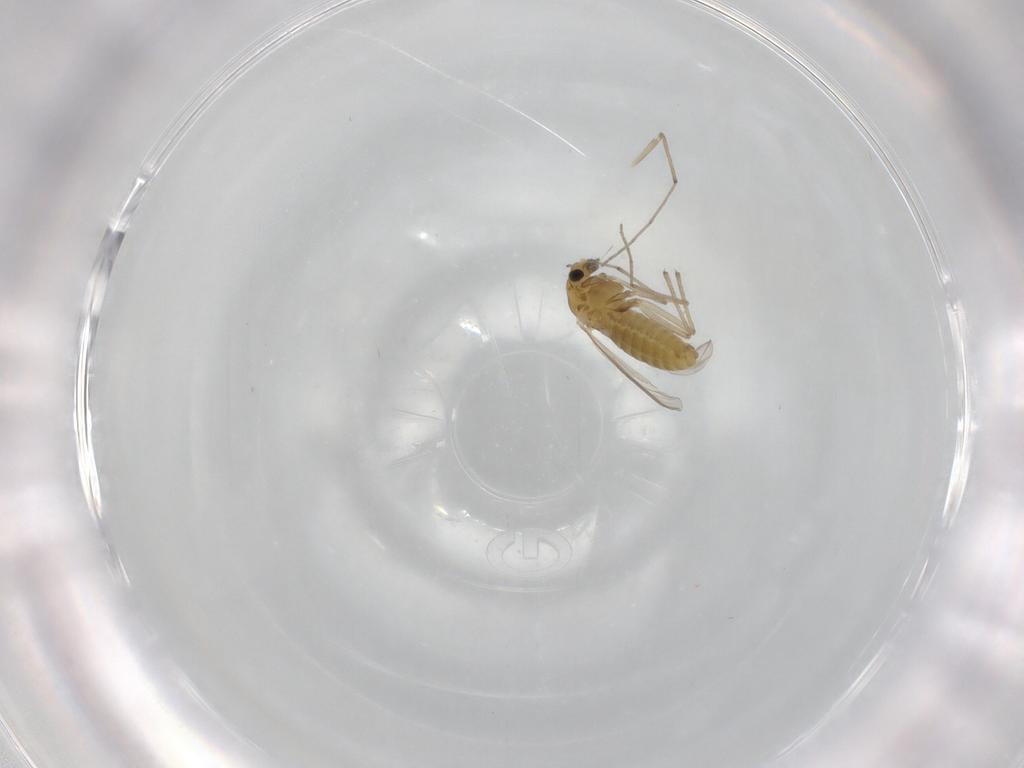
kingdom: Animalia
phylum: Arthropoda
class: Insecta
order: Diptera
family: Chironomidae
